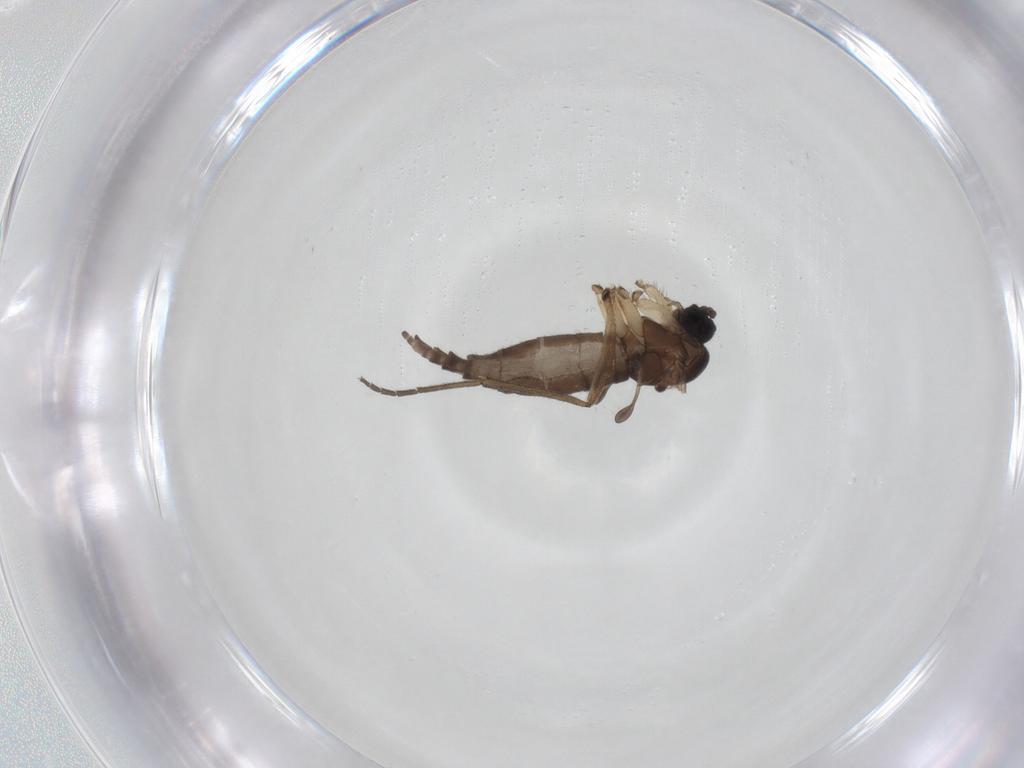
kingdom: Animalia
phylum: Arthropoda
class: Insecta
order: Diptera
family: Sciaridae
